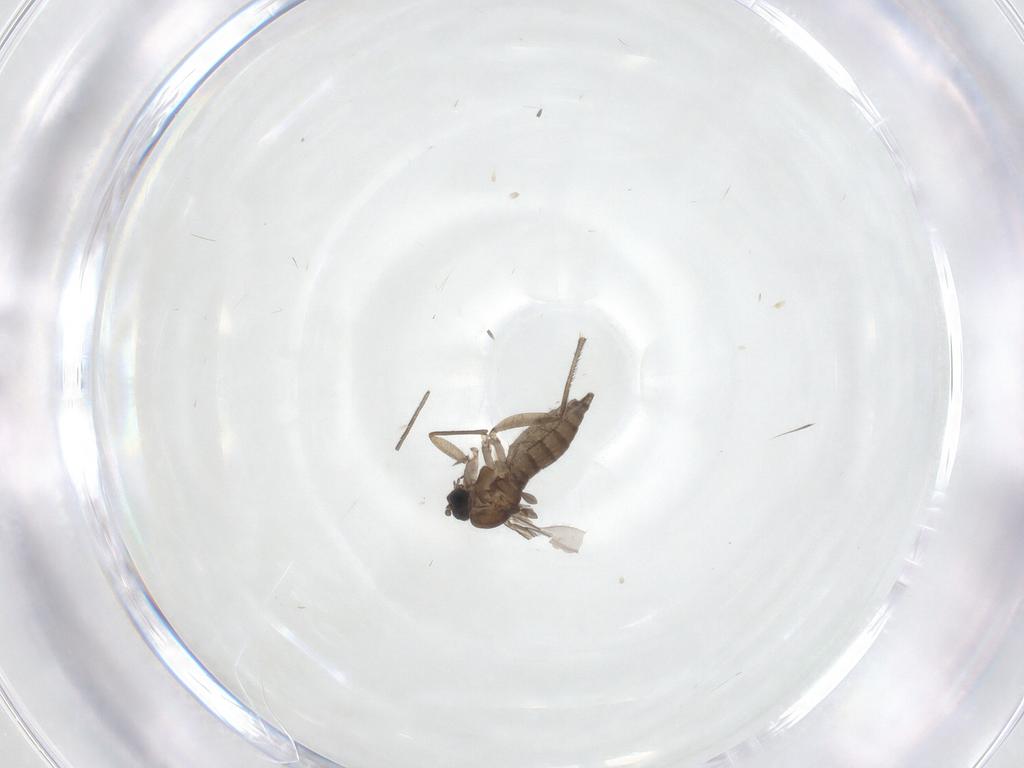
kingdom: Animalia
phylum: Arthropoda
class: Insecta
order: Diptera
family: Sciaridae
